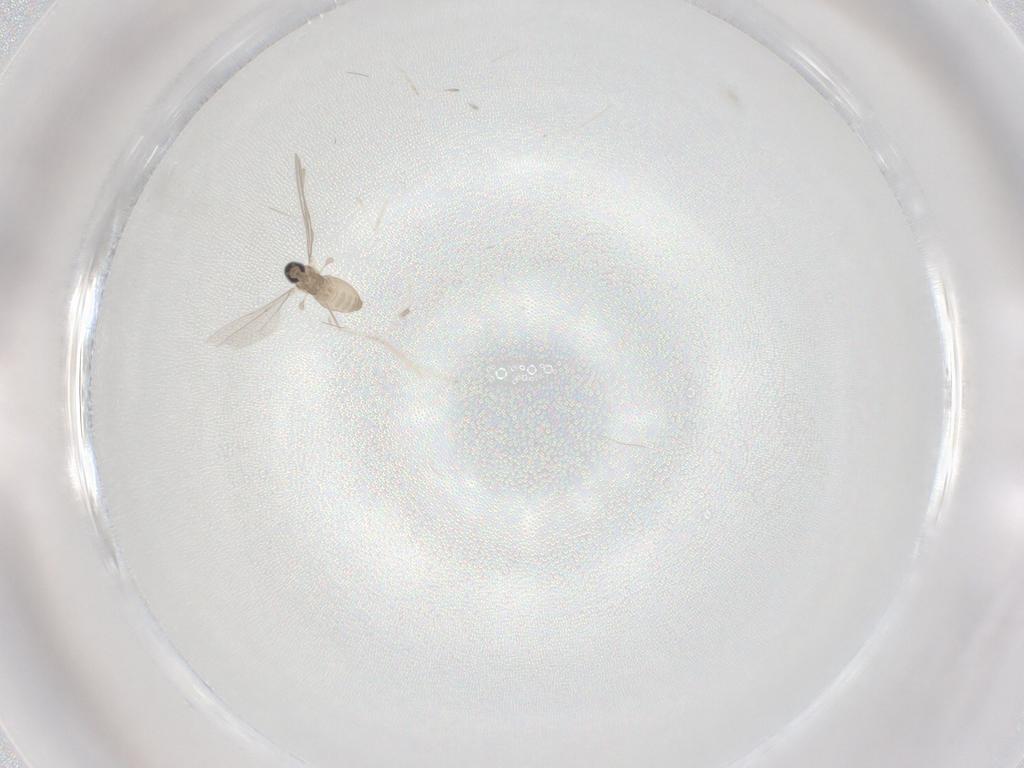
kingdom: Animalia
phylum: Arthropoda
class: Insecta
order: Diptera
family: Cecidomyiidae
